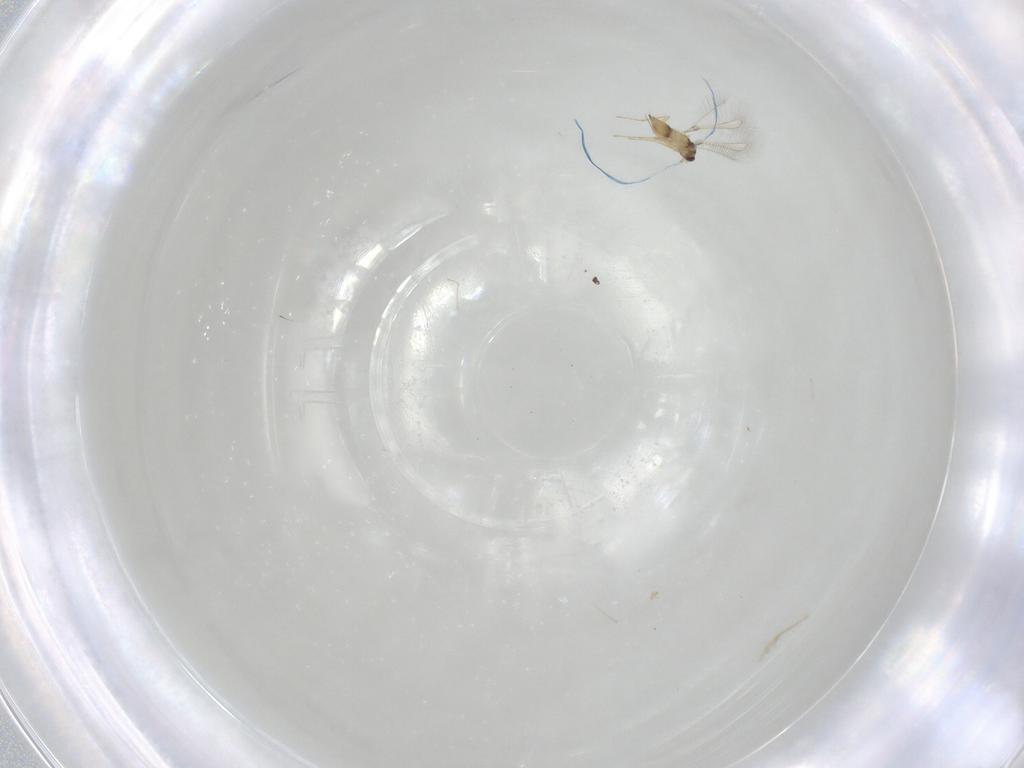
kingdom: Animalia
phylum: Arthropoda
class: Insecta
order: Hymenoptera
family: Mymaridae
